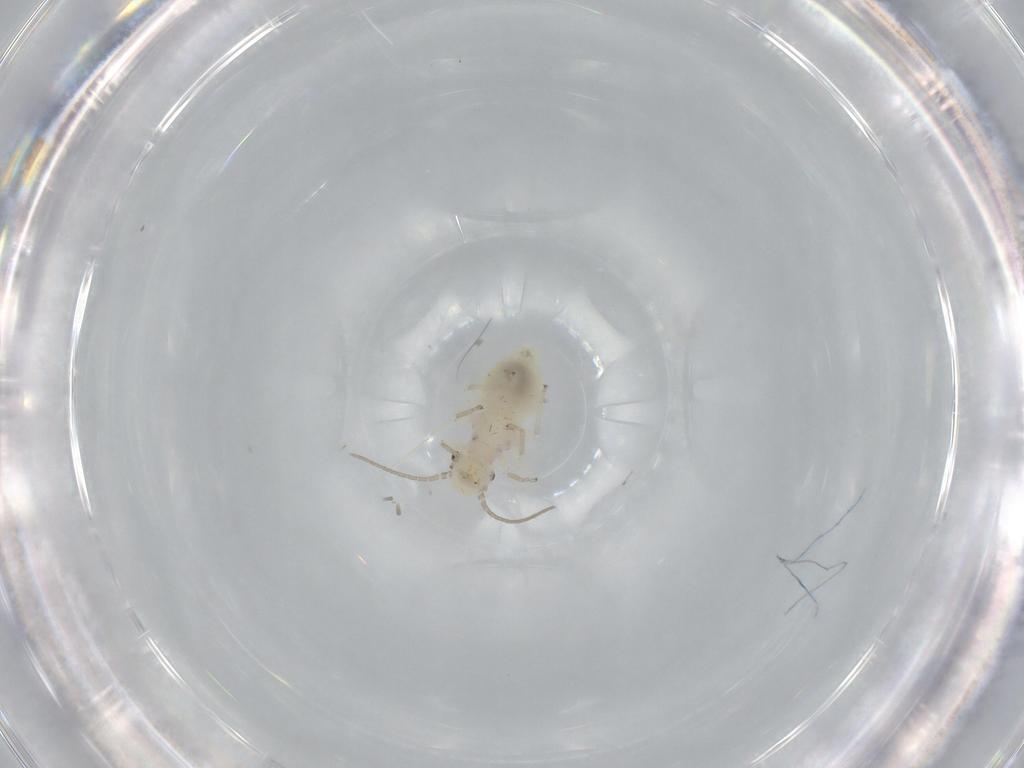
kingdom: Animalia
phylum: Arthropoda
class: Insecta
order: Psocodea
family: Caeciliusidae
